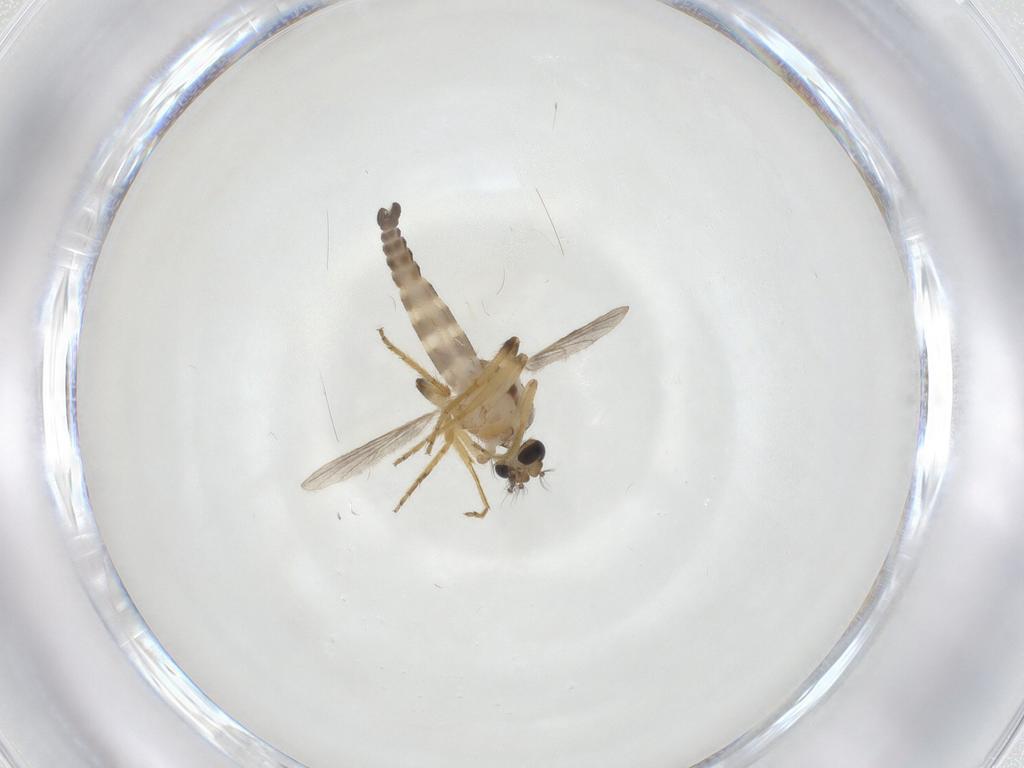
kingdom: Animalia
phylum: Arthropoda
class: Insecta
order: Diptera
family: Ceratopogonidae
